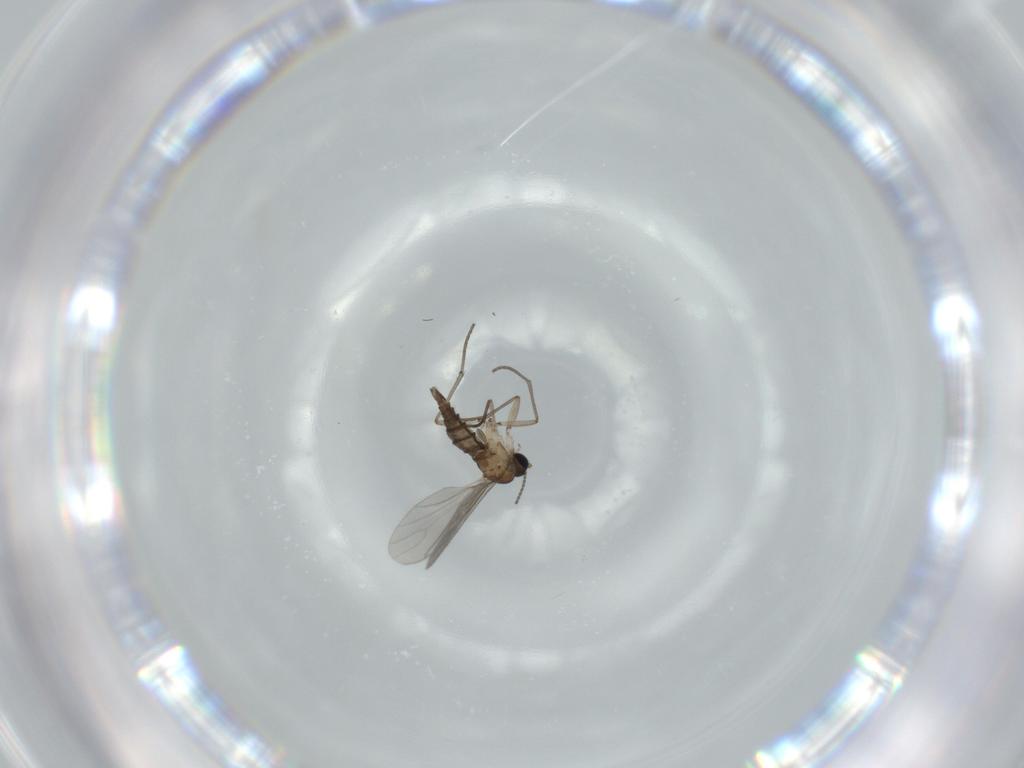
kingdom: Animalia
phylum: Arthropoda
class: Insecta
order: Diptera
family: Sciaridae
